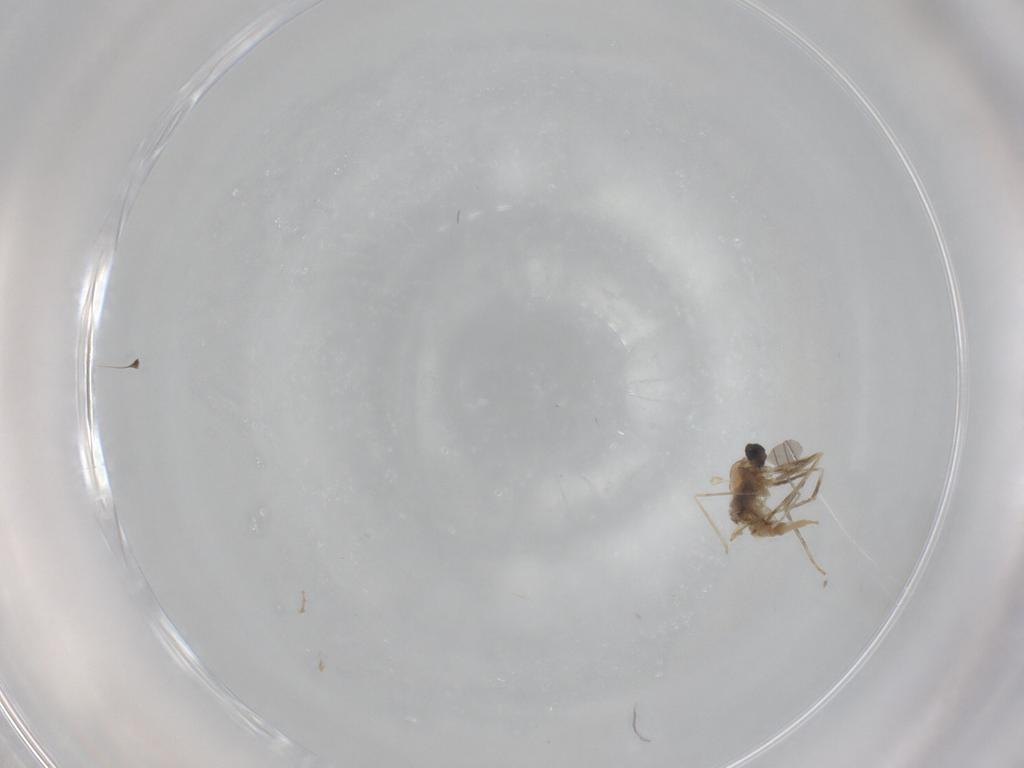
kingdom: Animalia
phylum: Arthropoda
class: Insecta
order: Diptera
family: Cecidomyiidae
